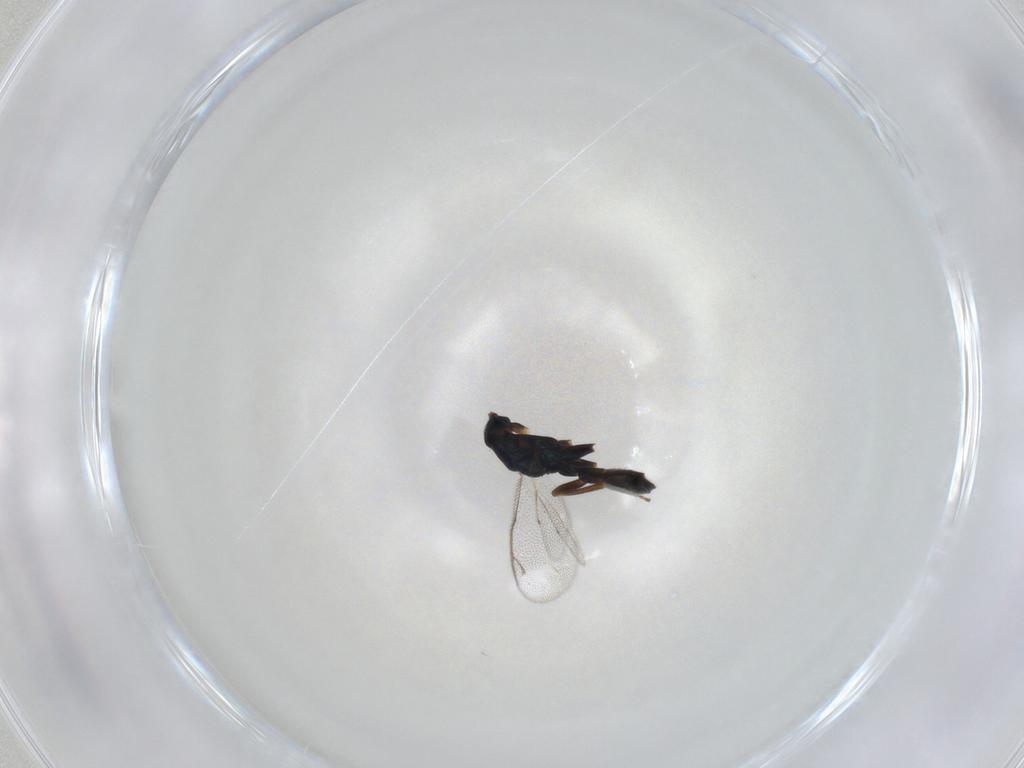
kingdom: Animalia
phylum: Arthropoda
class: Insecta
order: Hymenoptera
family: Cleonyminae
